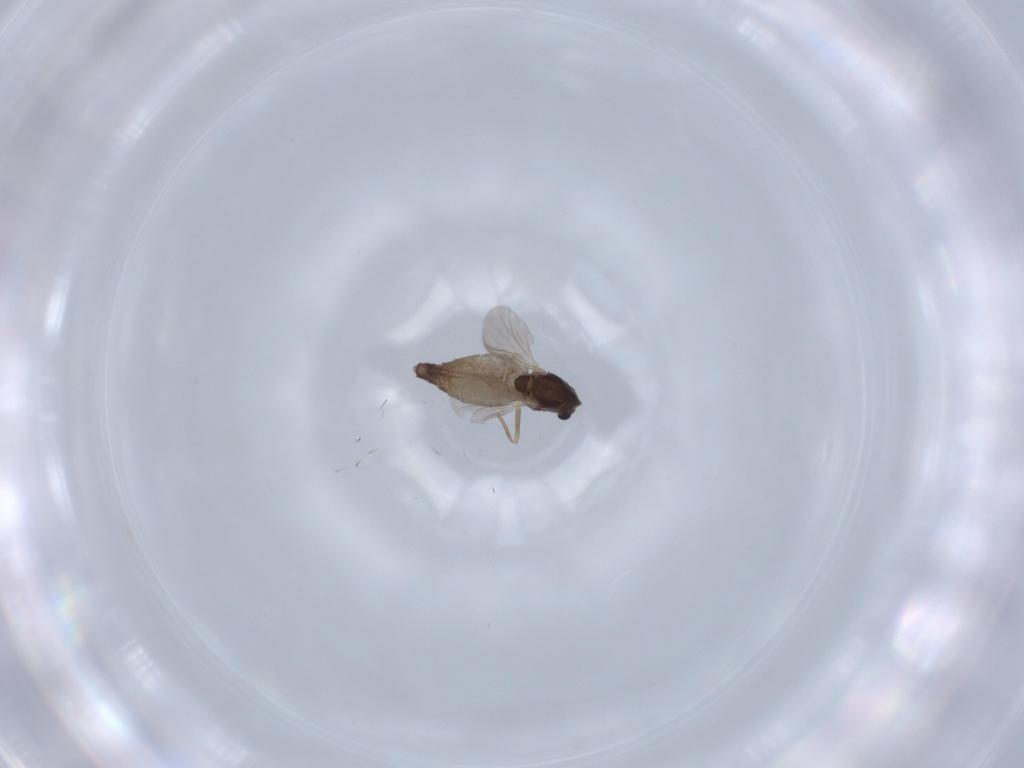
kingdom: Animalia
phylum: Arthropoda
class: Insecta
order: Diptera
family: Chironomidae
